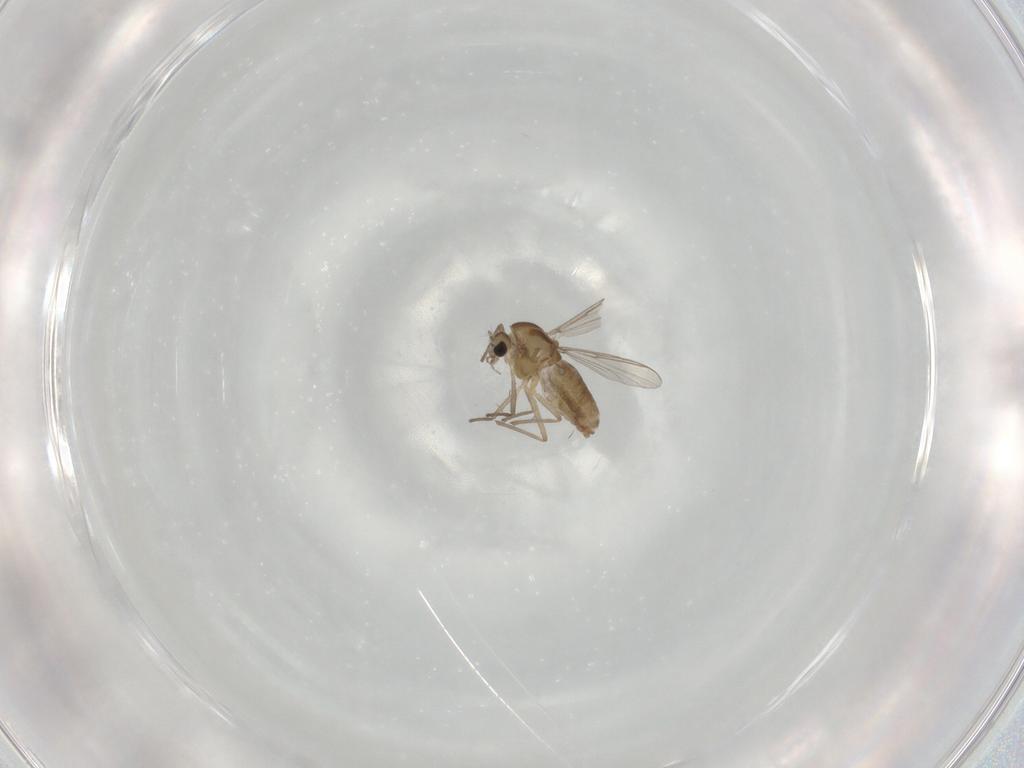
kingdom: Animalia
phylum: Arthropoda
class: Insecta
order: Diptera
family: Chironomidae
